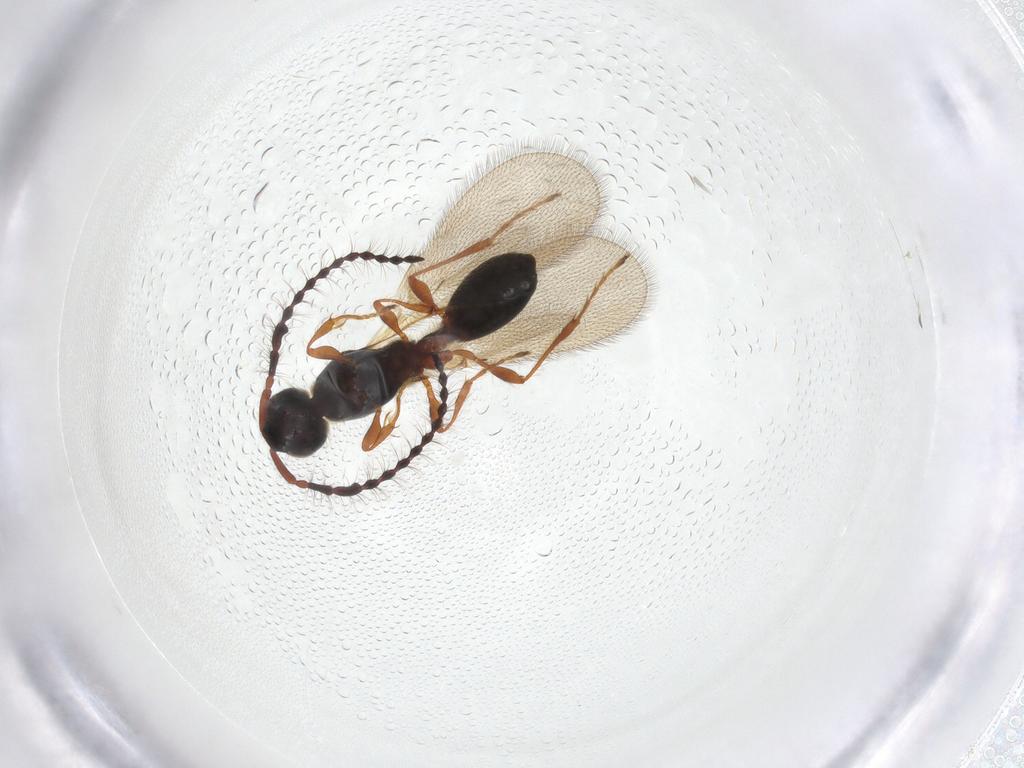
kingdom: Animalia
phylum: Arthropoda
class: Insecta
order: Hymenoptera
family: Diapriidae
